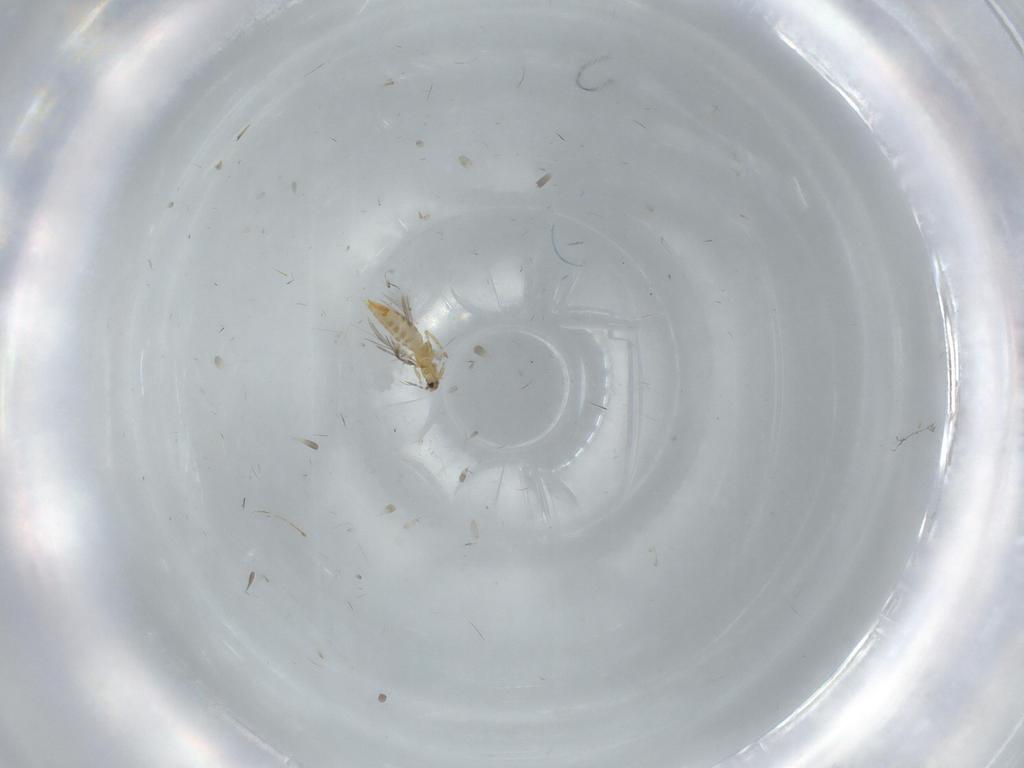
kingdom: Animalia
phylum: Arthropoda
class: Insecta
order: Thysanoptera
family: Thripidae
